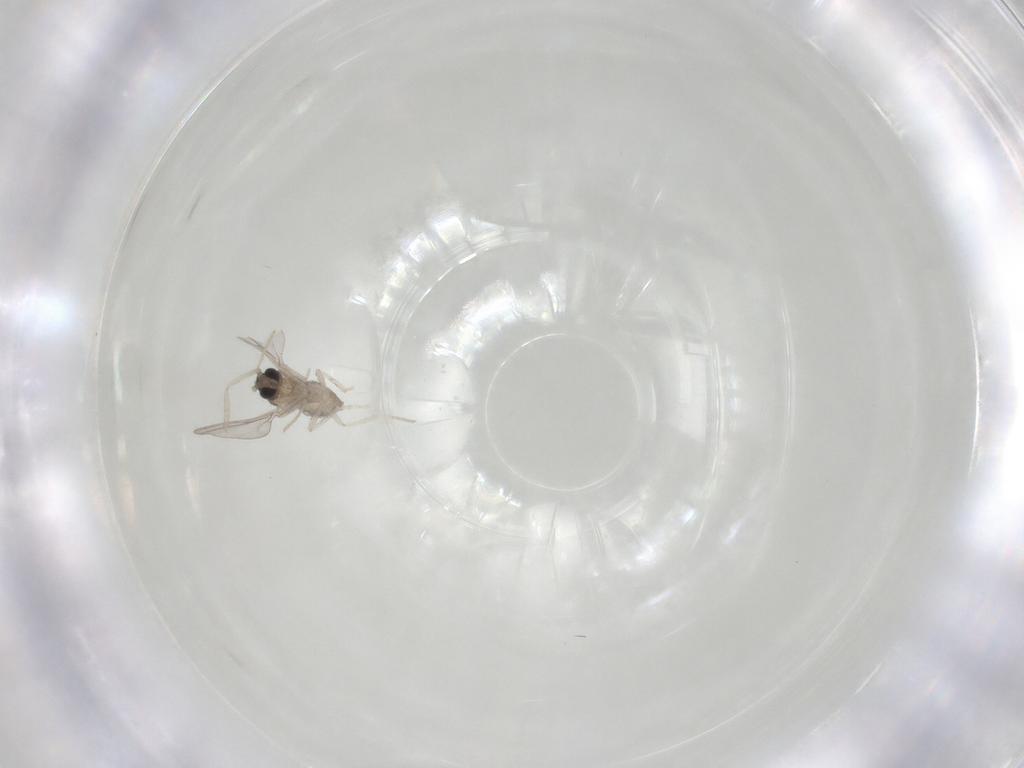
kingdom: Animalia
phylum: Arthropoda
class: Insecta
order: Diptera
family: Cecidomyiidae
